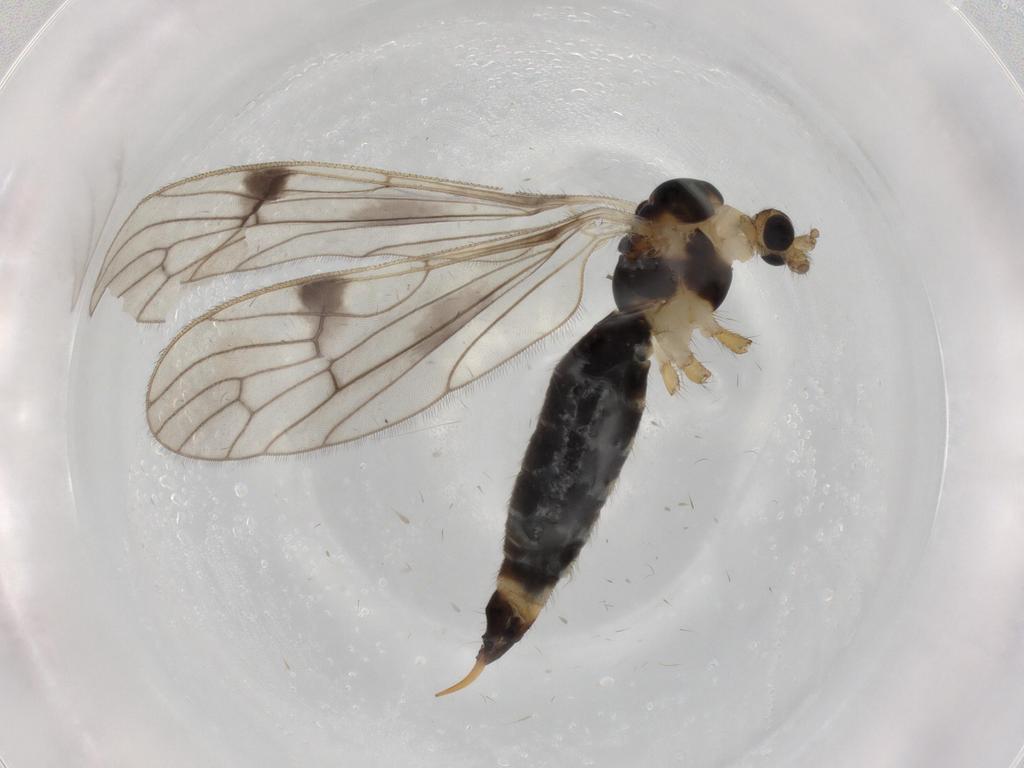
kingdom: Animalia
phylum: Arthropoda
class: Insecta
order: Diptera
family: Limoniidae
